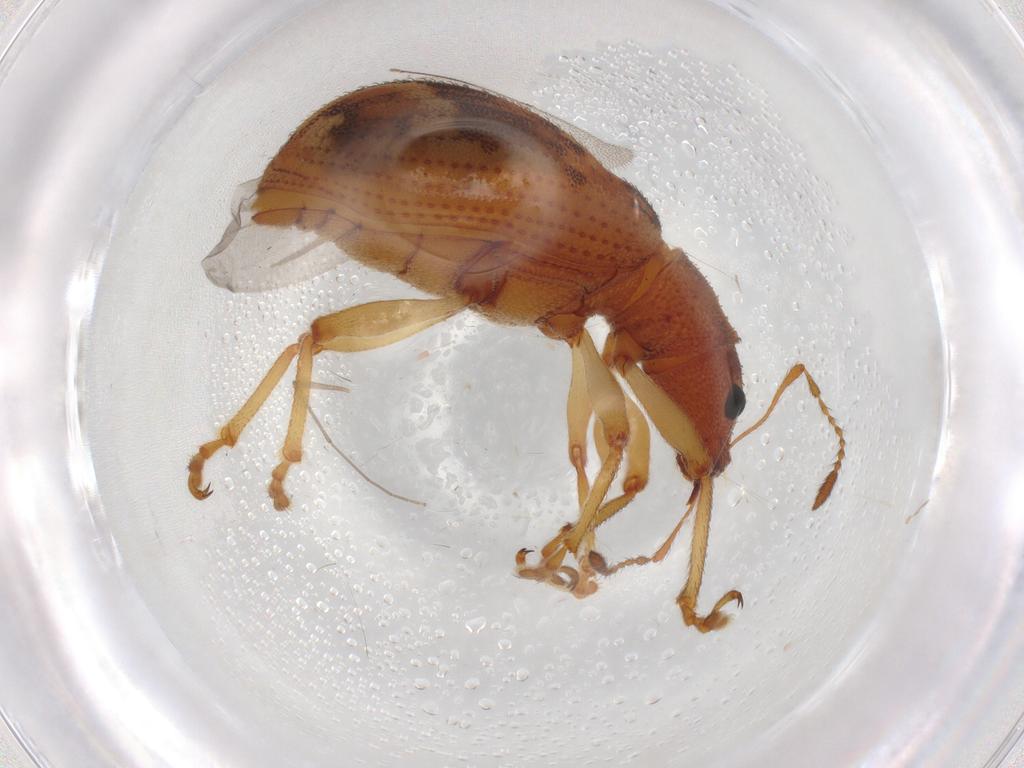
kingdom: Animalia
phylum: Arthropoda
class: Insecta
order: Coleoptera
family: Curculionidae
